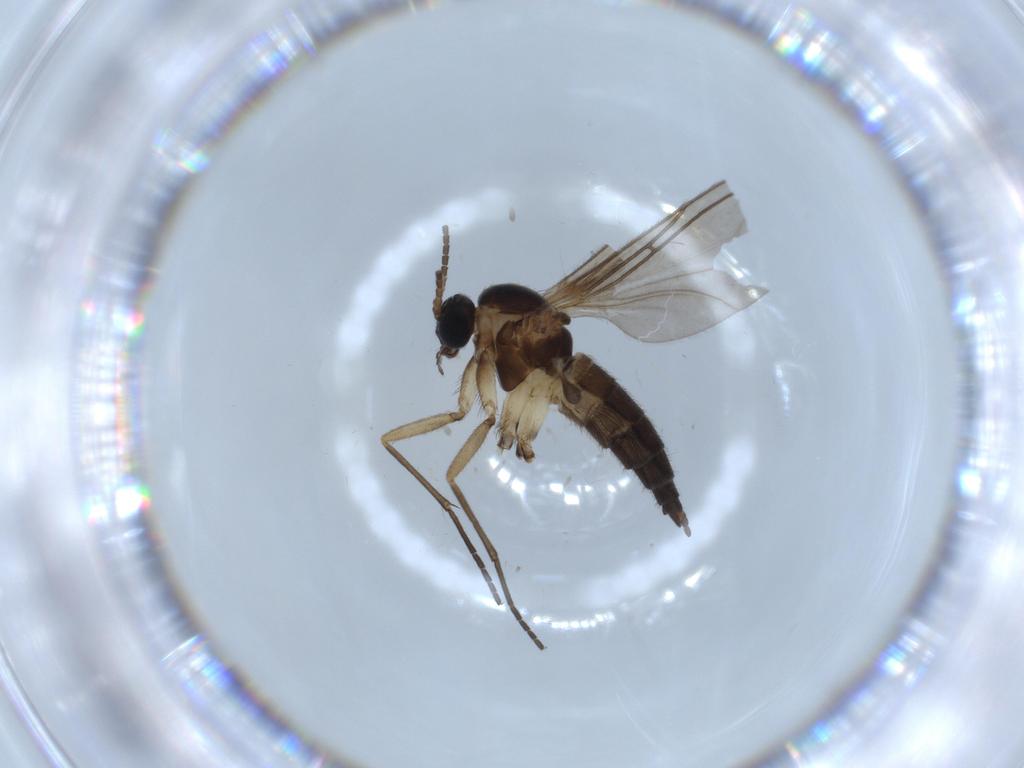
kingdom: Animalia
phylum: Arthropoda
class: Insecta
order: Diptera
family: Sciaridae
